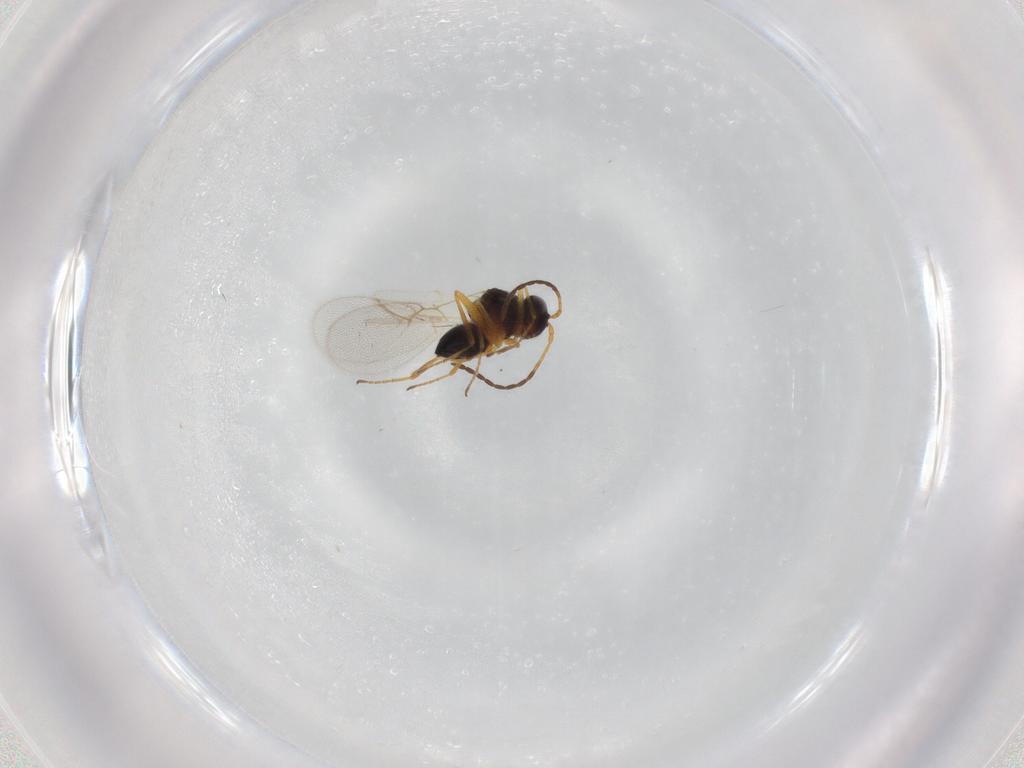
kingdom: Animalia
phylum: Arthropoda
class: Insecta
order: Hymenoptera
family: Figitidae
